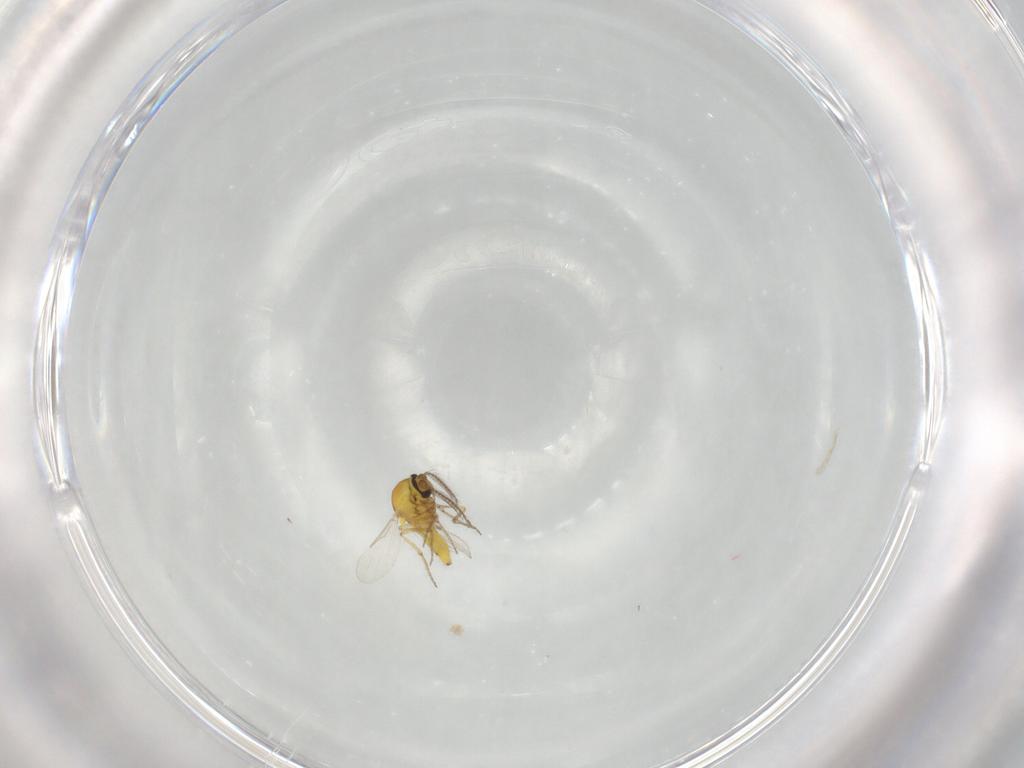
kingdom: Animalia
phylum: Arthropoda
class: Insecta
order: Diptera
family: Ceratopogonidae
